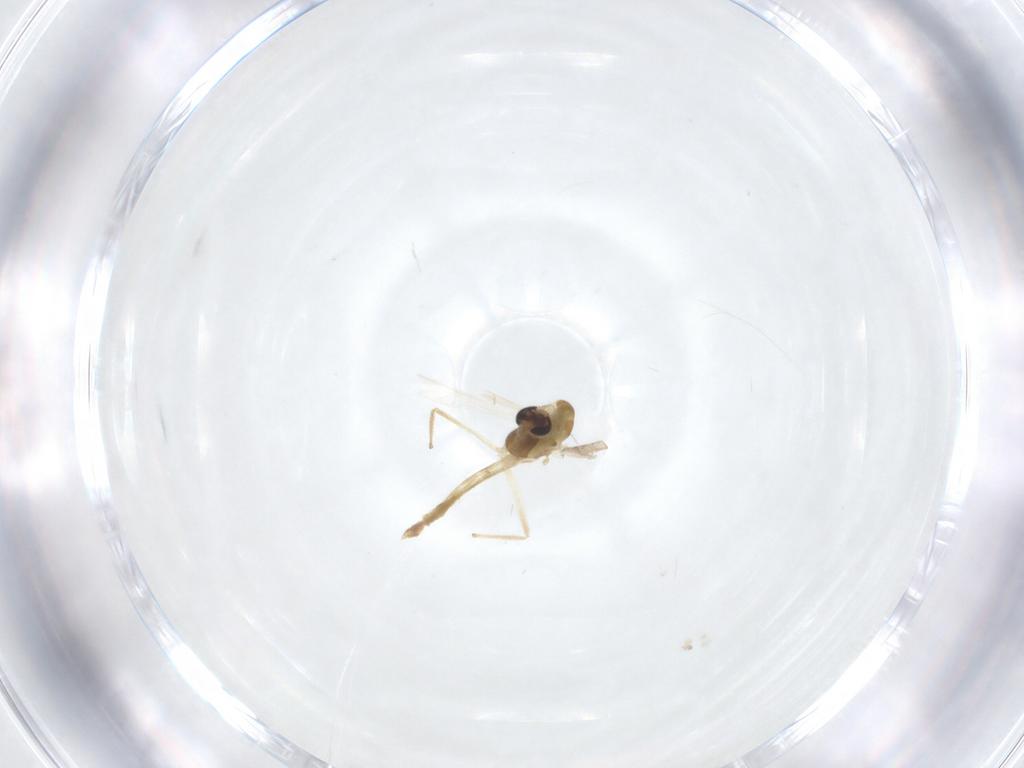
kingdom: Animalia
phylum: Arthropoda
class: Insecta
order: Diptera
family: Chironomidae
